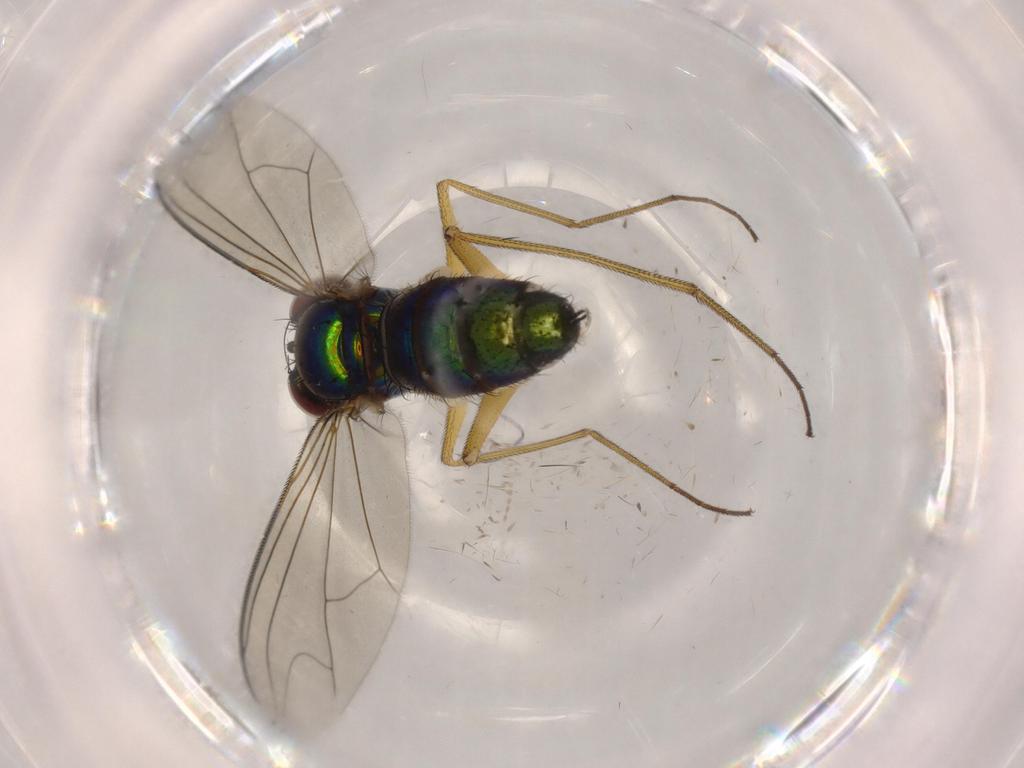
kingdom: Animalia
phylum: Arthropoda
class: Insecta
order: Diptera
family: Dolichopodidae
